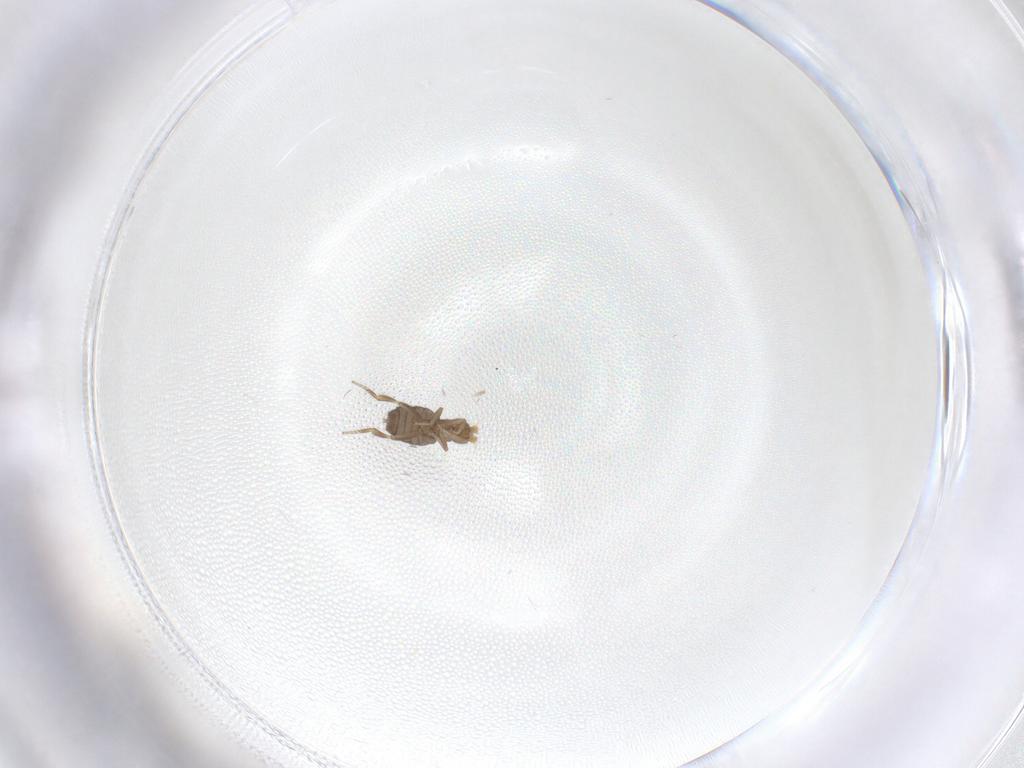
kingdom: Animalia
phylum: Arthropoda
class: Insecta
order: Diptera
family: Phoridae
